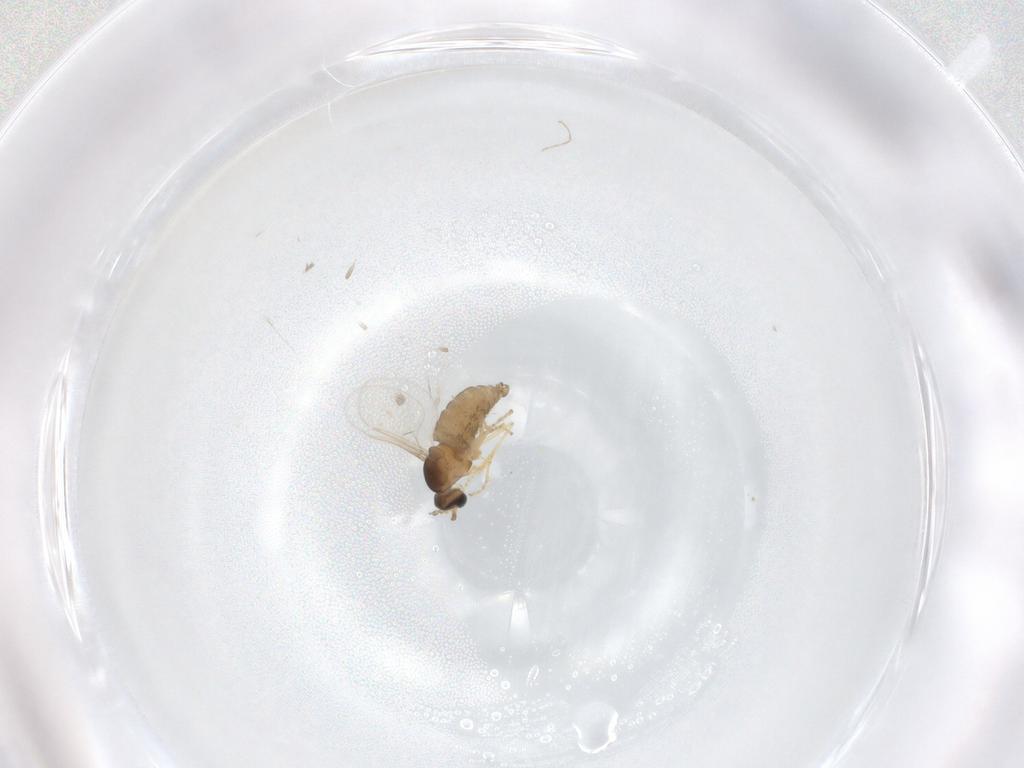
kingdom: Animalia
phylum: Arthropoda
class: Insecta
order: Diptera
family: Cecidomyiidae
